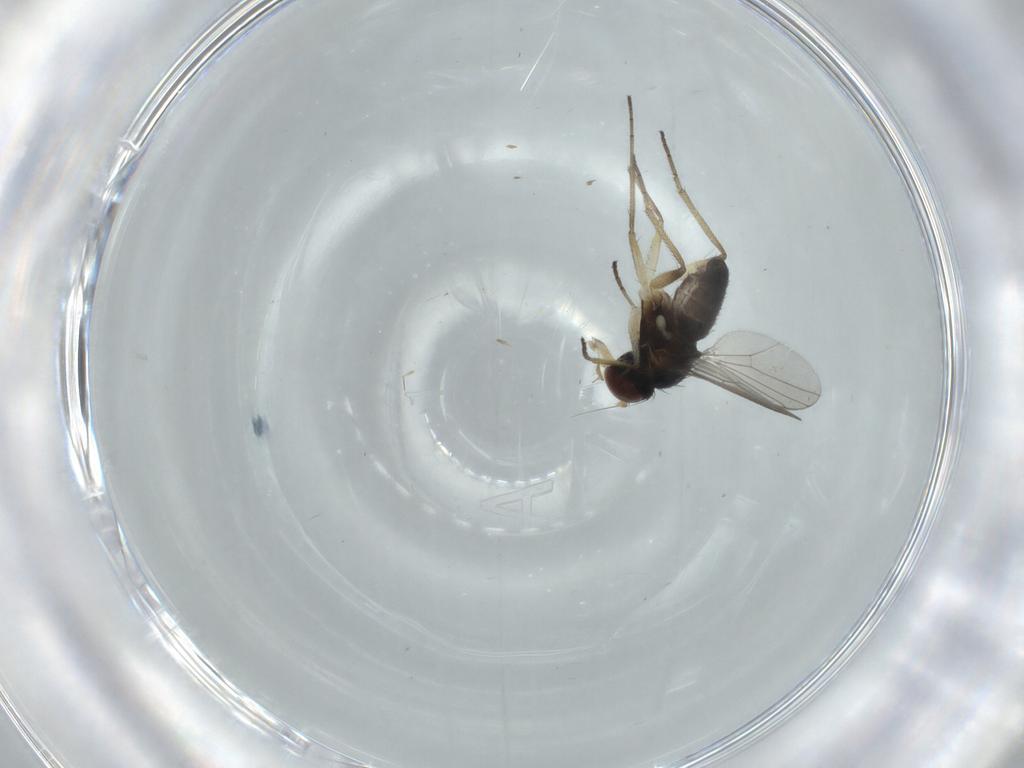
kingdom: Animalia
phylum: Arthropoda
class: Insecta
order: Diptera
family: Dolichopodidae
